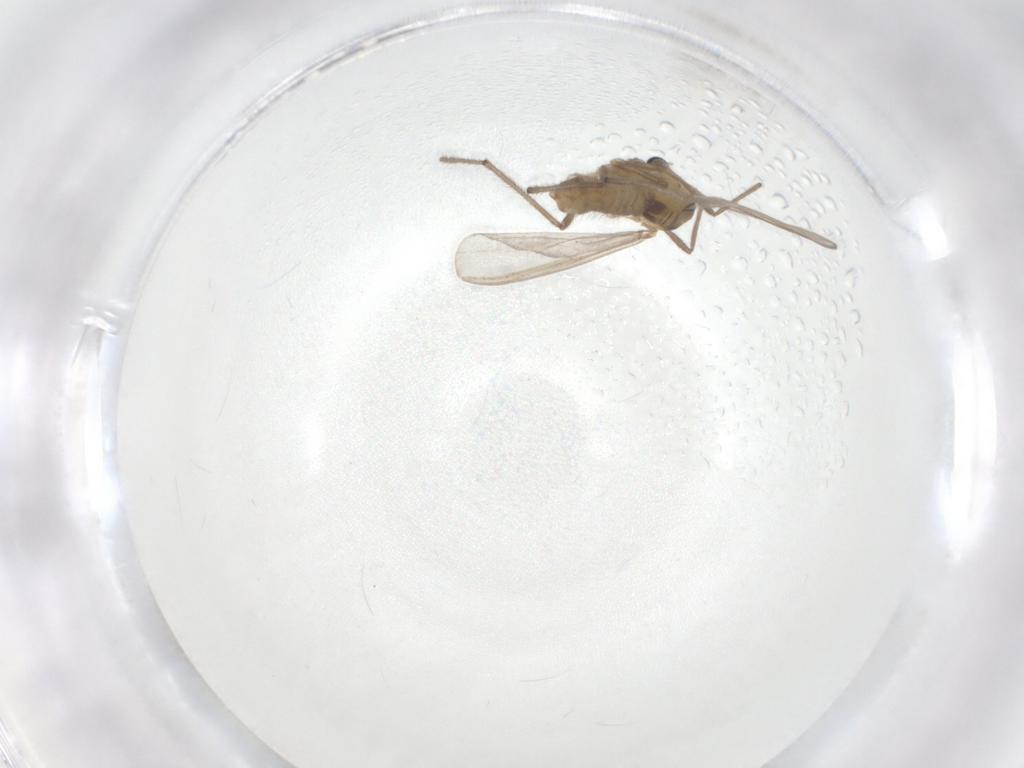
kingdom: Animalia
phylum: Arthropoda
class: Insecta
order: Diptera
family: Chironomidae
